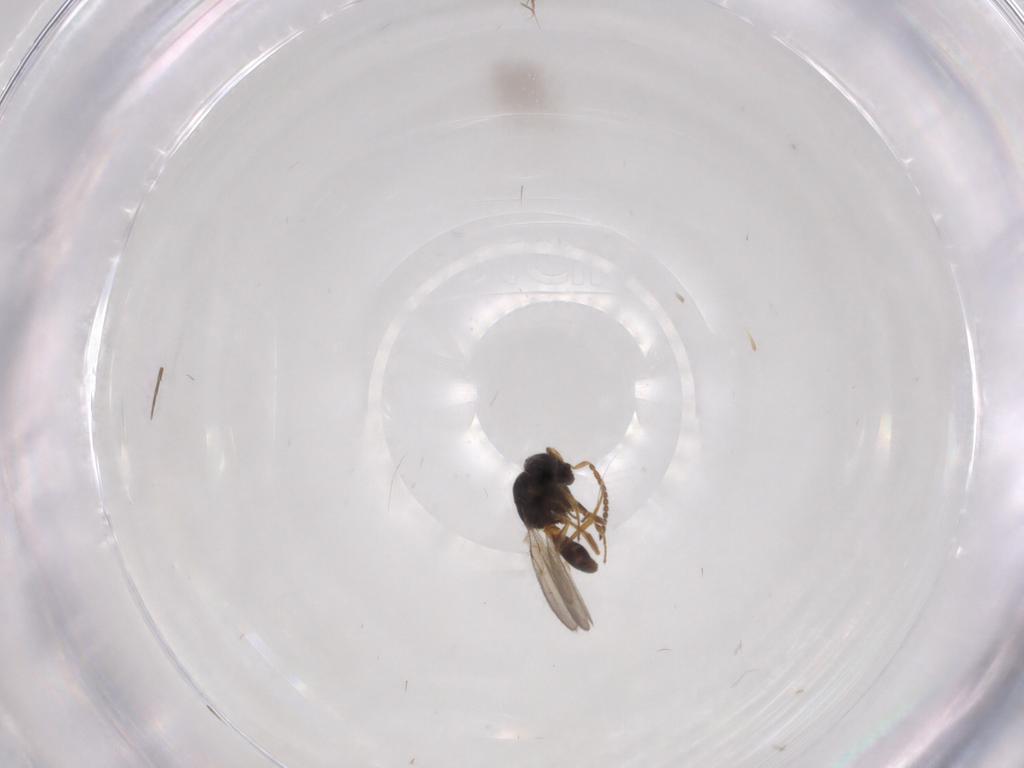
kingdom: Animalia
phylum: Arthropoda
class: Insecta
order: Hymenoptera
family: Scelionidae
